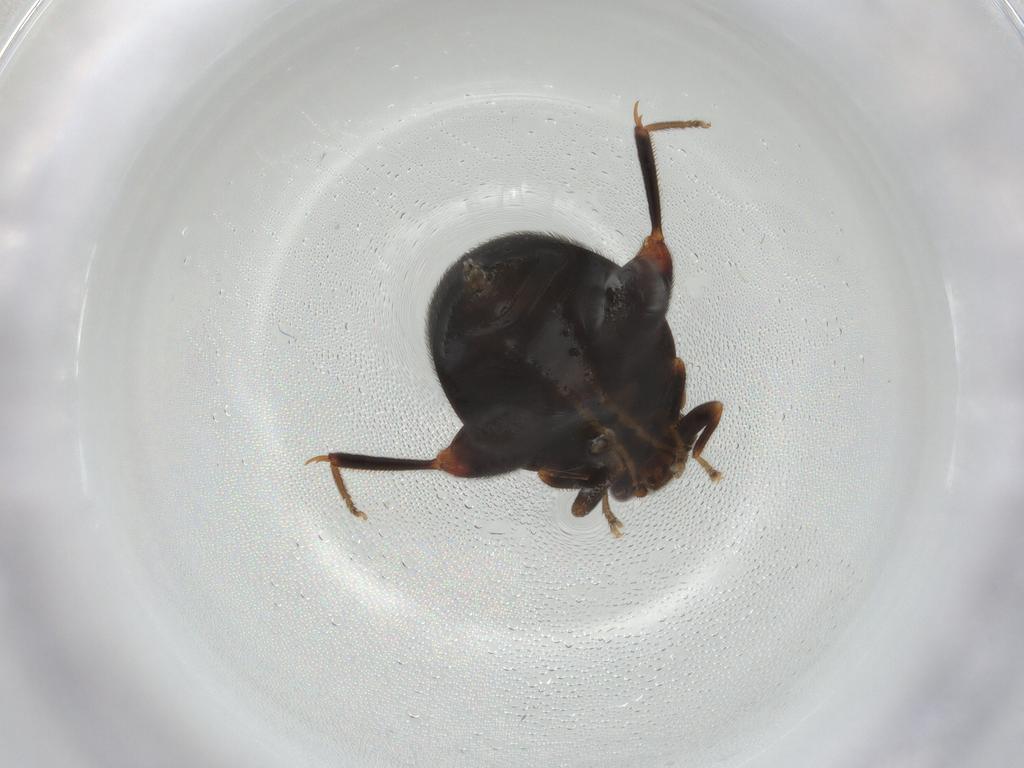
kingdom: Animalia
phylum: Arthropoda
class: Insecta
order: Coleoptera
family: Scirtidae
